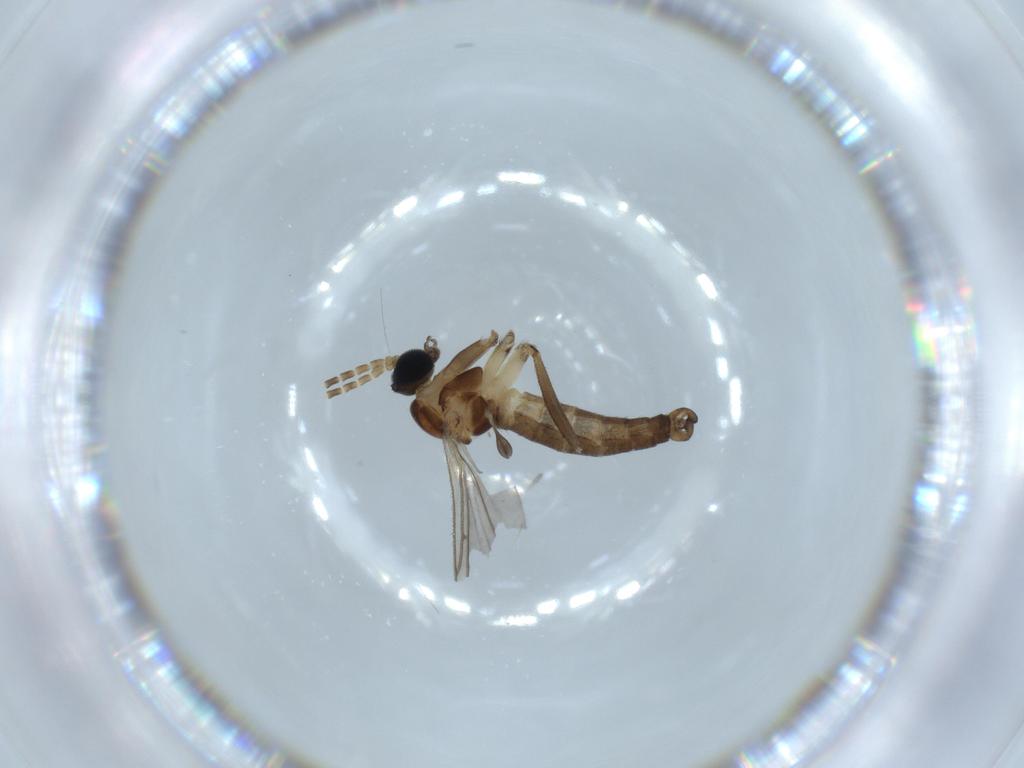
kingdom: Animalia
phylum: Arthropoda
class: Insecta
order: Diptera
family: Sciaridae
